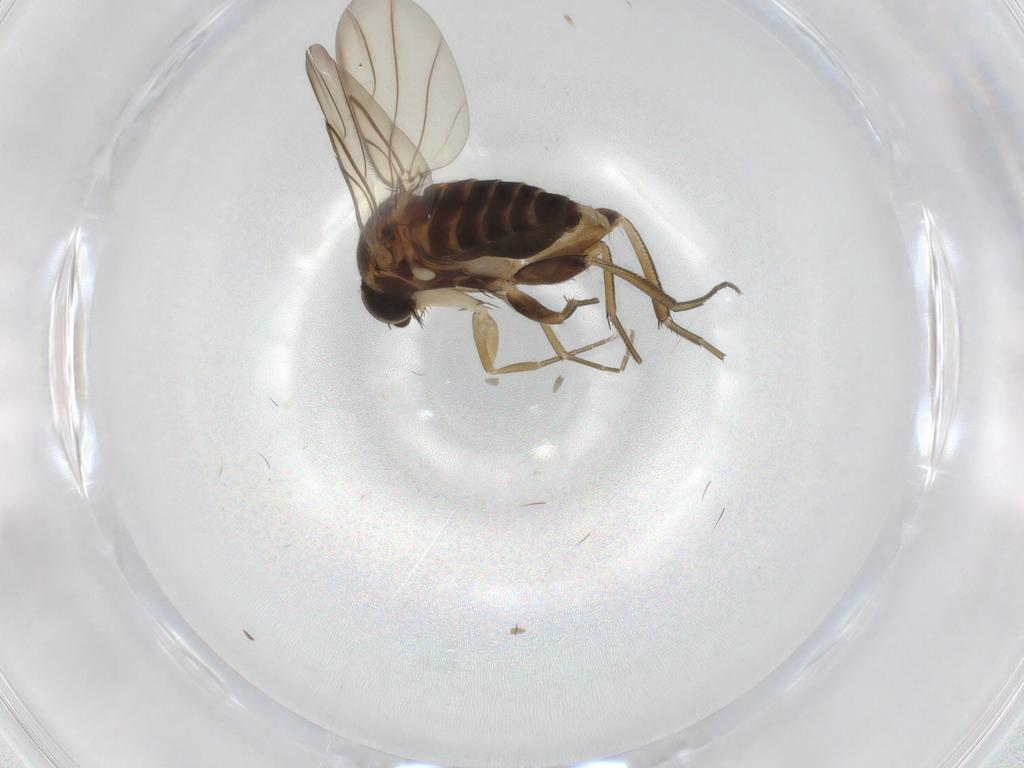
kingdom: Animalia
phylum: Arthropoda
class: Insecta
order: Diptera
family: Phoridae
